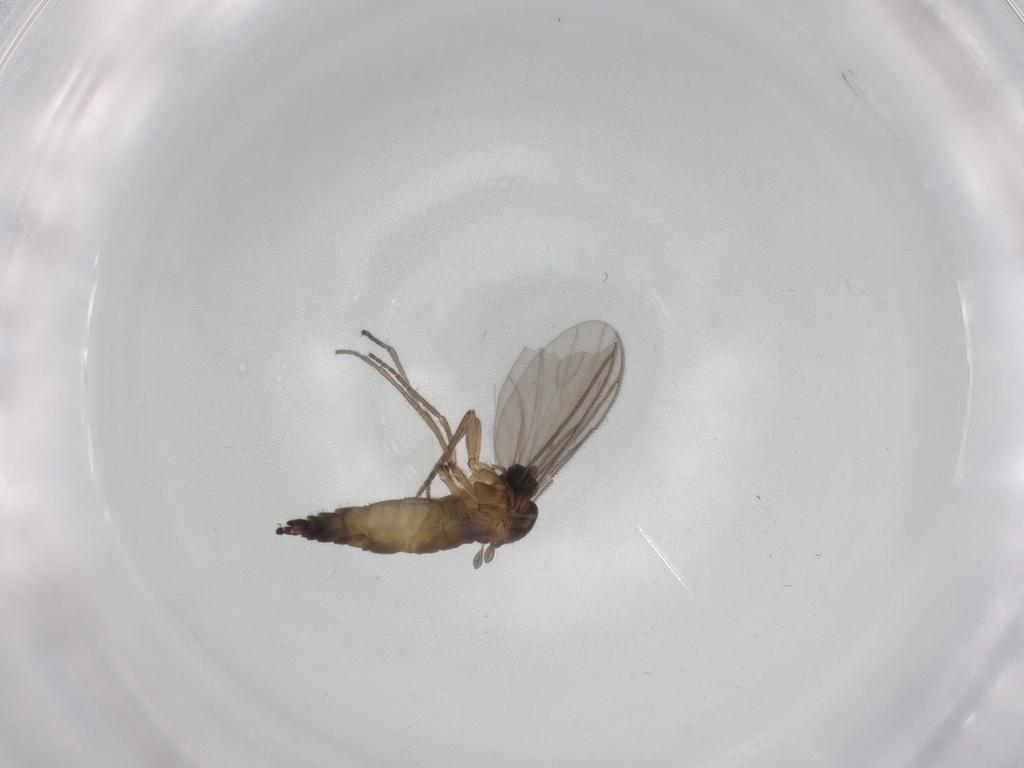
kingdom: Animalia
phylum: Arthropoda
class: Insecta
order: Diptera
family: Sciaridae
